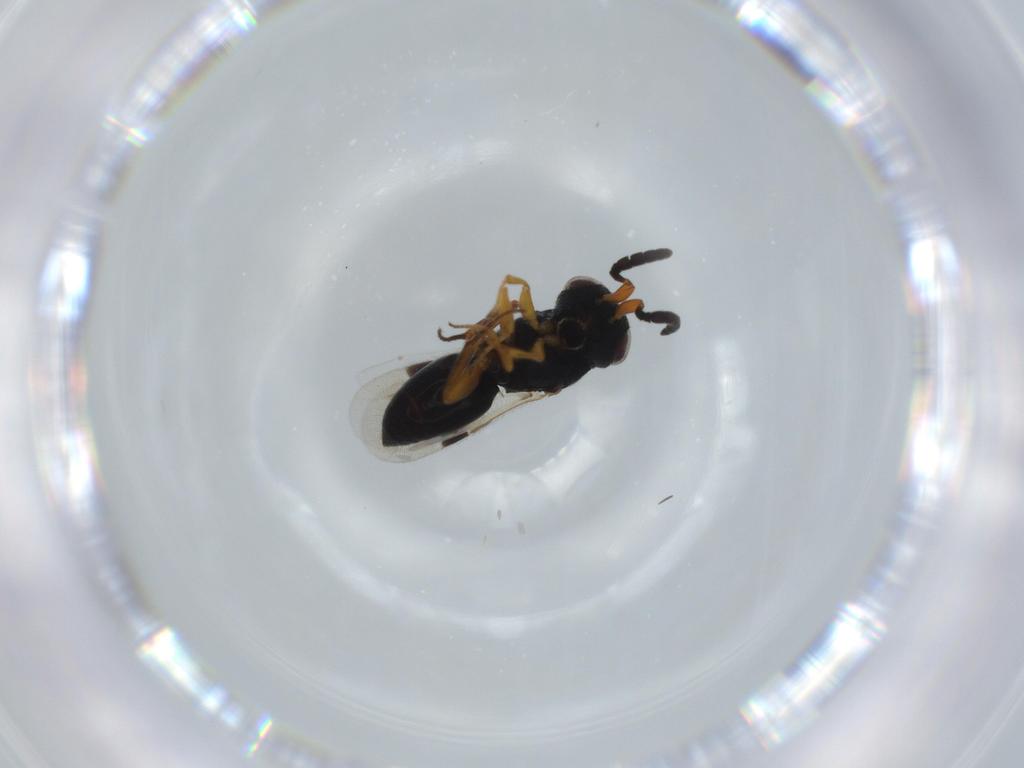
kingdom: Animalia
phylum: Arthropoda
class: Insecta
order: Hymenoptera
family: Megaspilidae
